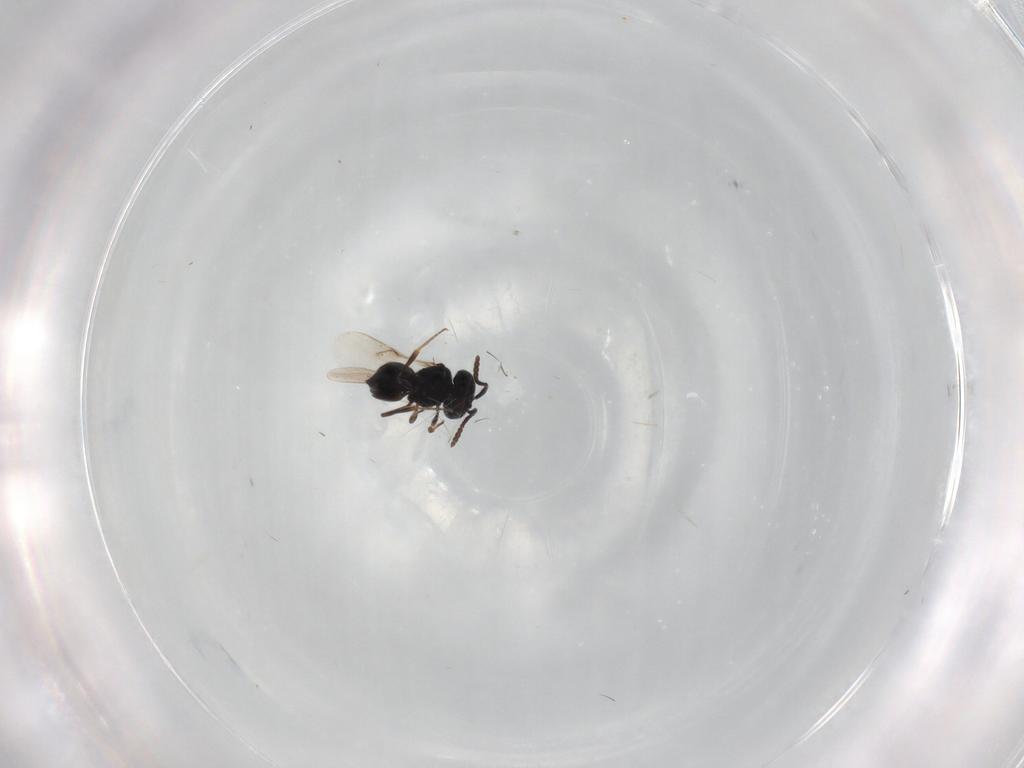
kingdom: Animalia
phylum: Arthropoda
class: Insecta
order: Hymenoptera
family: Scelionidae
